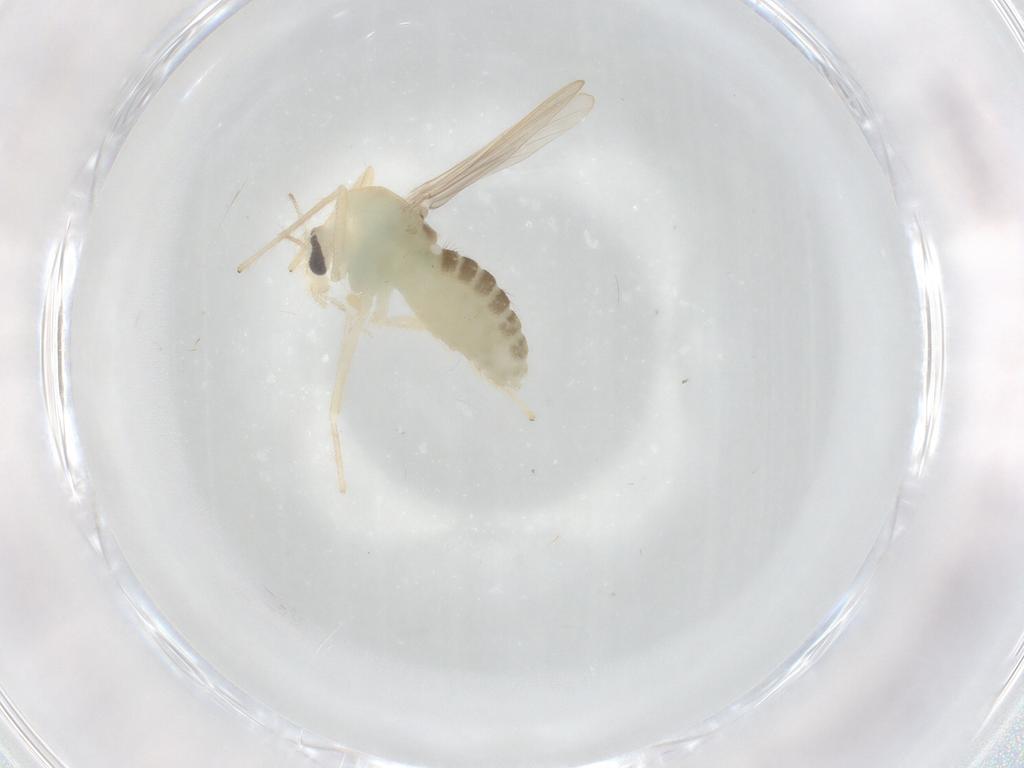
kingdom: Animalia
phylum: Arthropoda
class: Insecta
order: Diptera
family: Chironomidae
